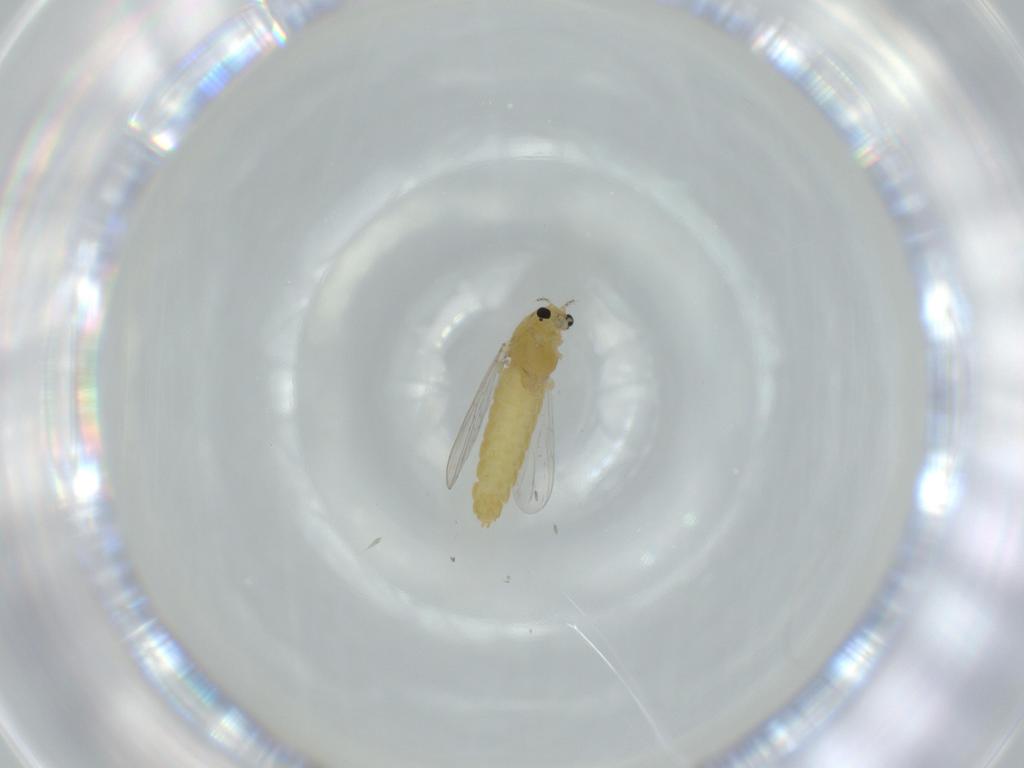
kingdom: Animalia
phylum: Arthropoda
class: Insecta
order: Diptera
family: Chironomidae
